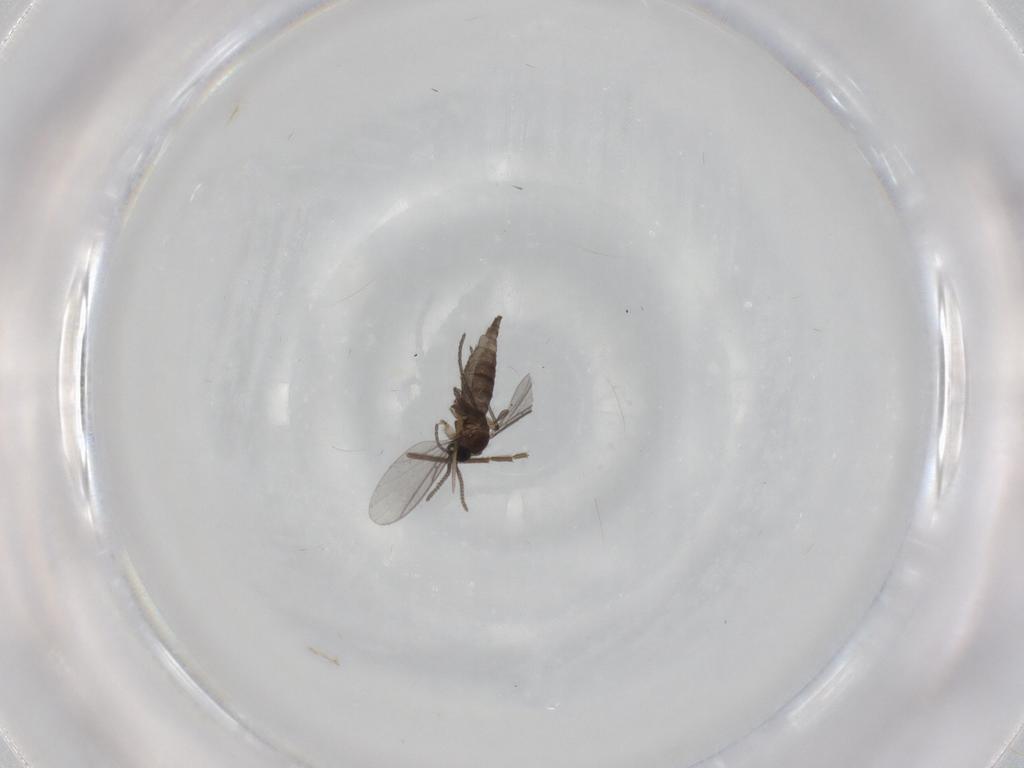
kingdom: Animalia
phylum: Arthropoda
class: Insecta
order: Diptera
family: Chironomidae
